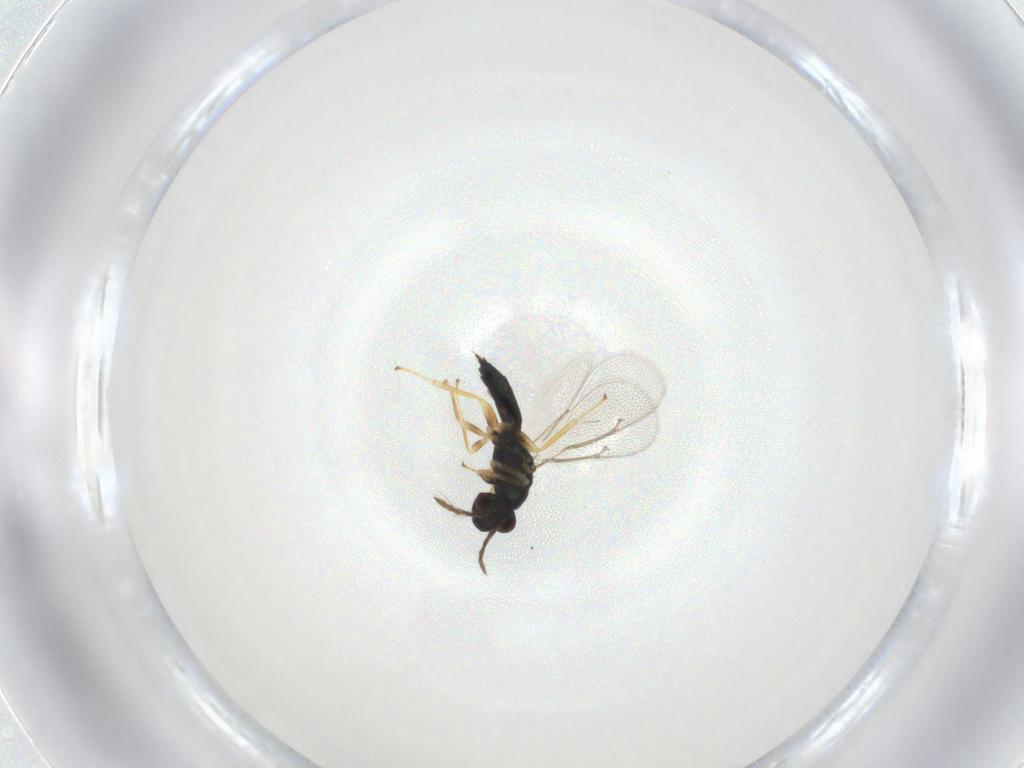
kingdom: Animalia
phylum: Arthropoda
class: Insecta
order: Hymenoptera
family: Eulophidae
